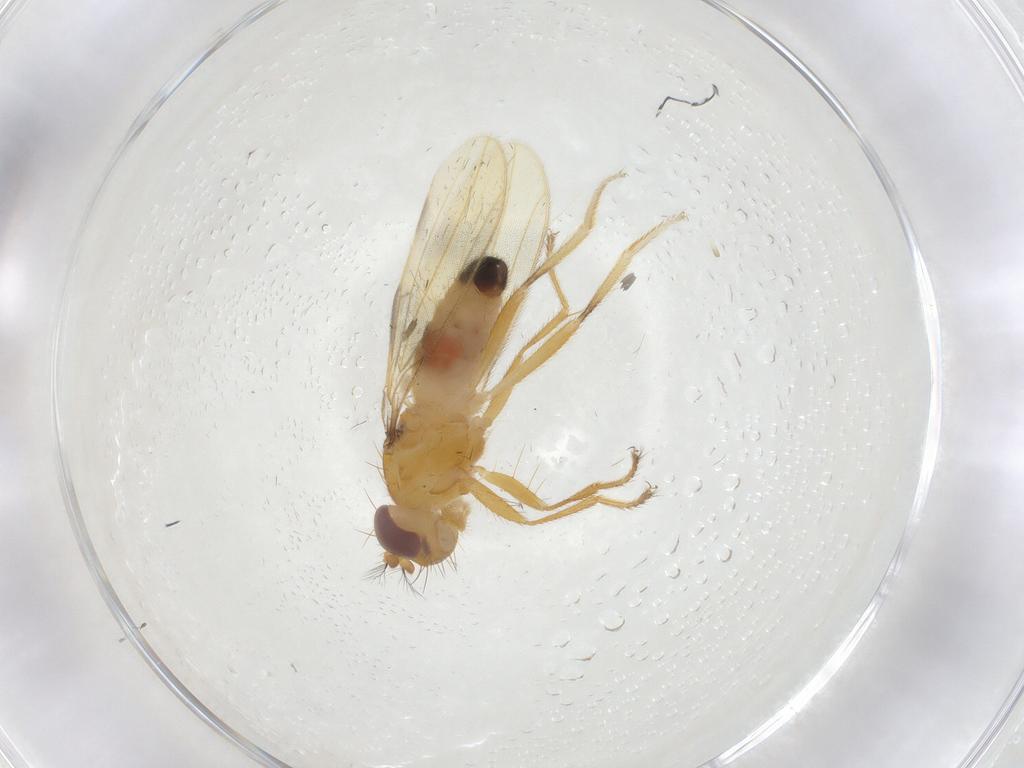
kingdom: Animalia
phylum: Arthropoda
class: Insecta
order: Diptera
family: Periscelididae
